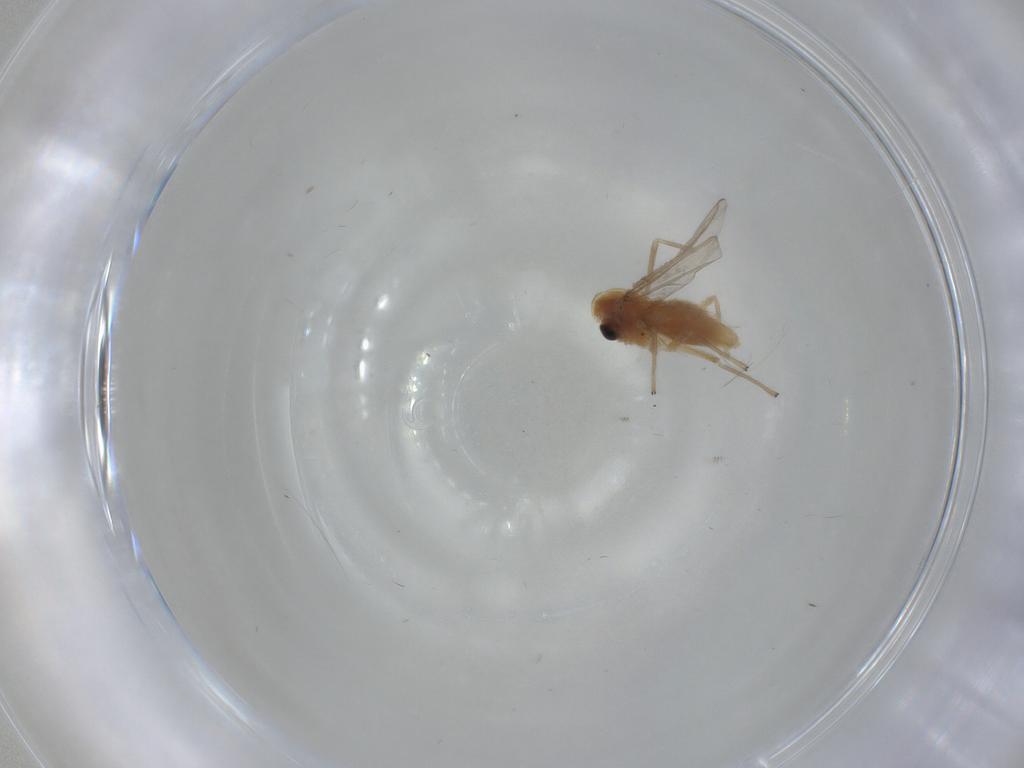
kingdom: Animalia
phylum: Arthropoda
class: Insecta
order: Diptera
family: Chironomidae
